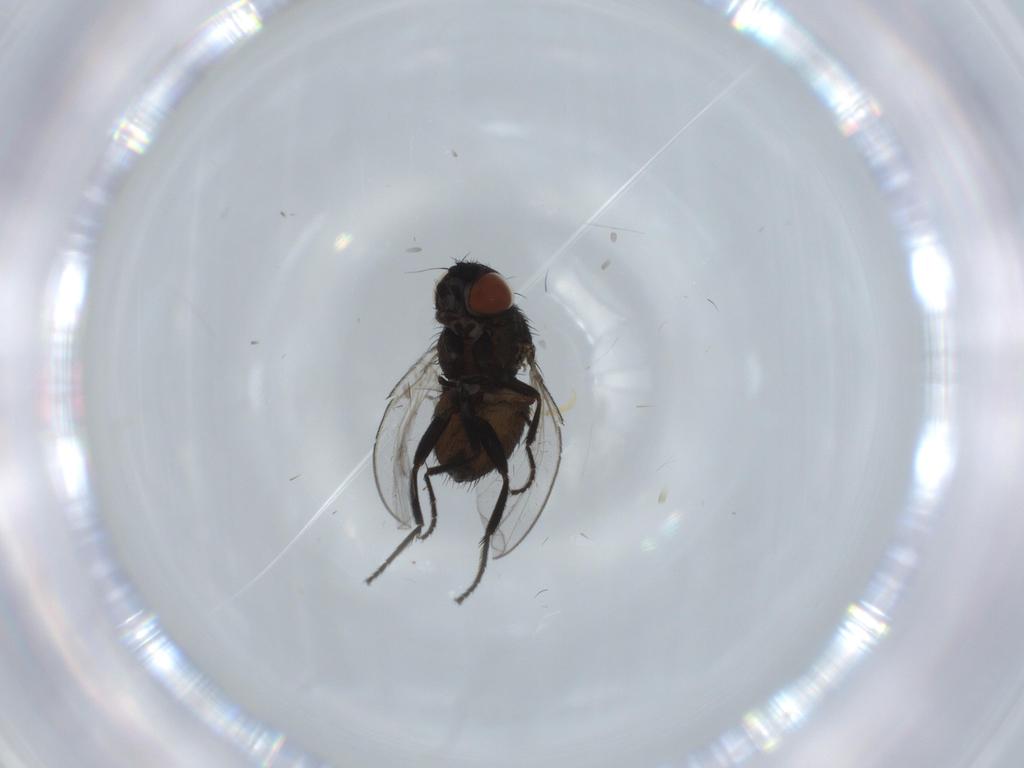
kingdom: Animalia
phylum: Arthropoda
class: Insecta
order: Diptera
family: Milichiidae
